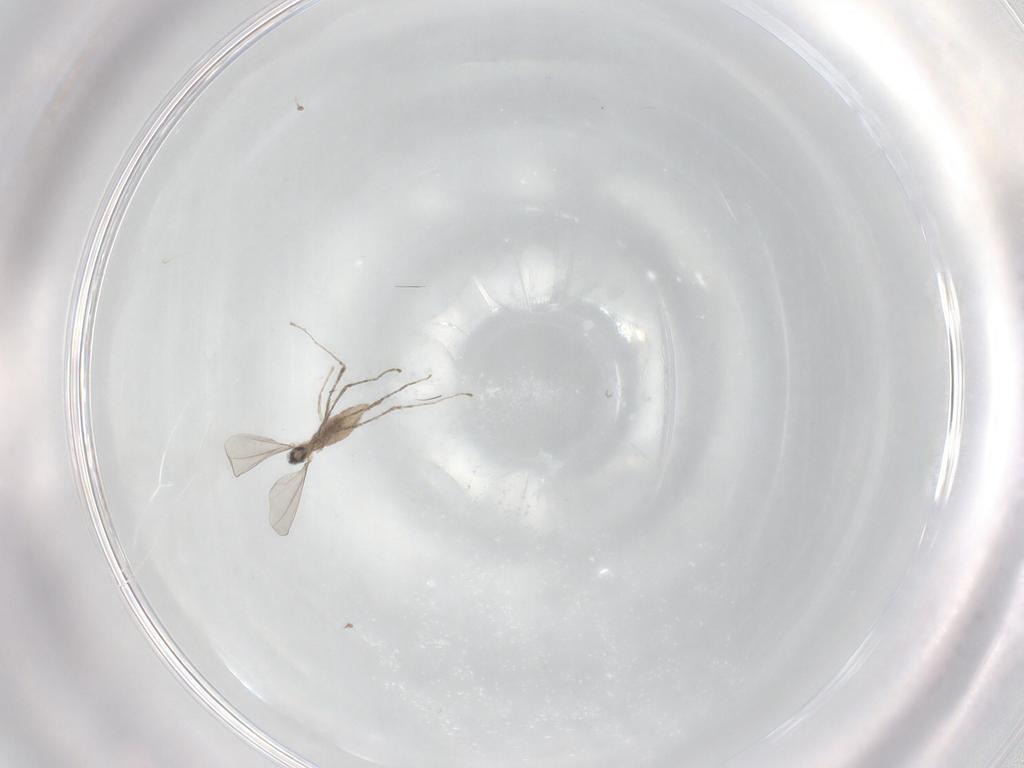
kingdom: Animalia
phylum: Arthropoda
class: Insecta
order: Diptera
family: Cecidomyiidae
